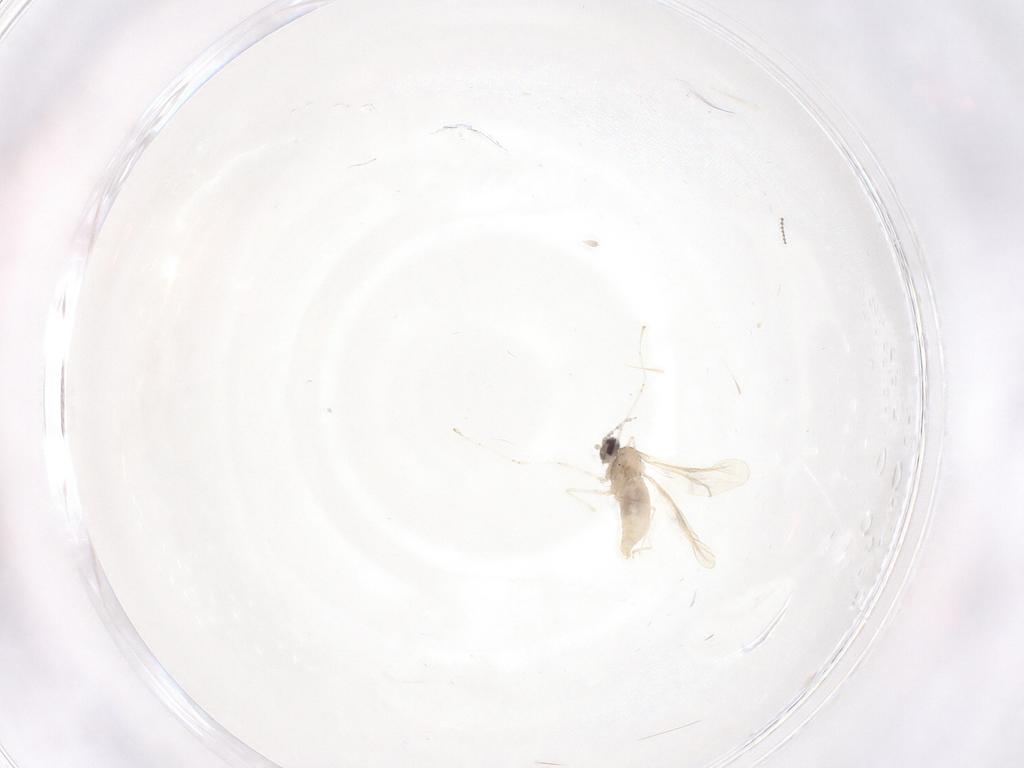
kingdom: Animalia
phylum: Arthropoda
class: Insecta
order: Diptera
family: Cecidomyiidae
